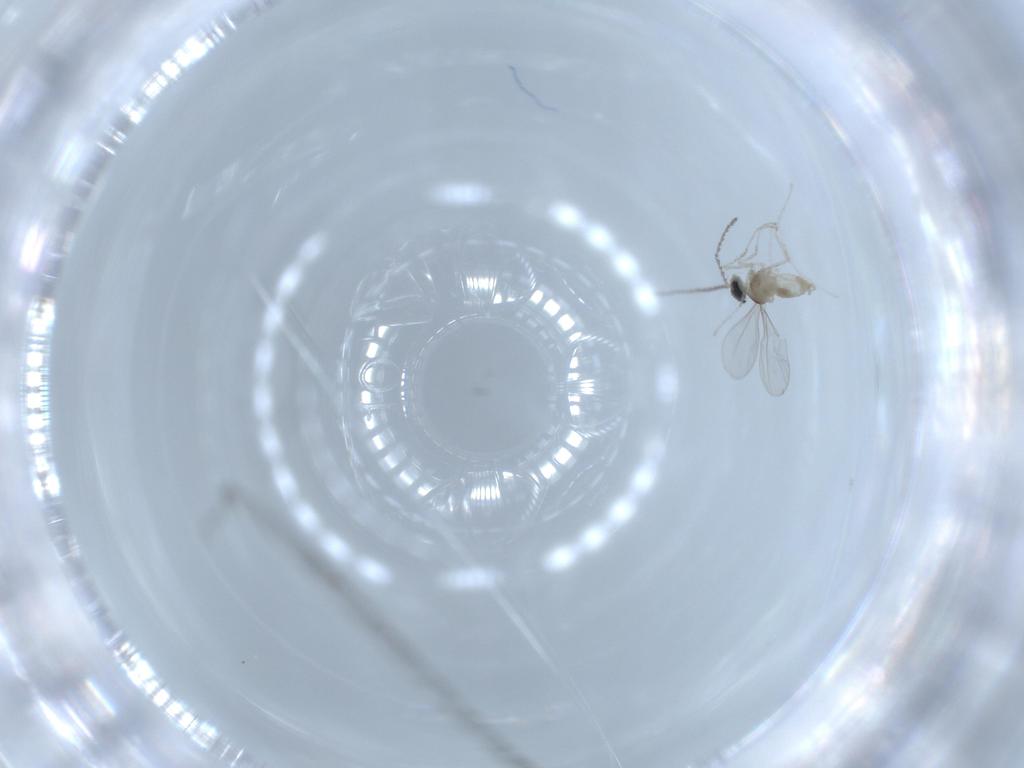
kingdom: Animalia
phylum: Arthropoda
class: Insecta
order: Diptera
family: Cecidomyiidae
